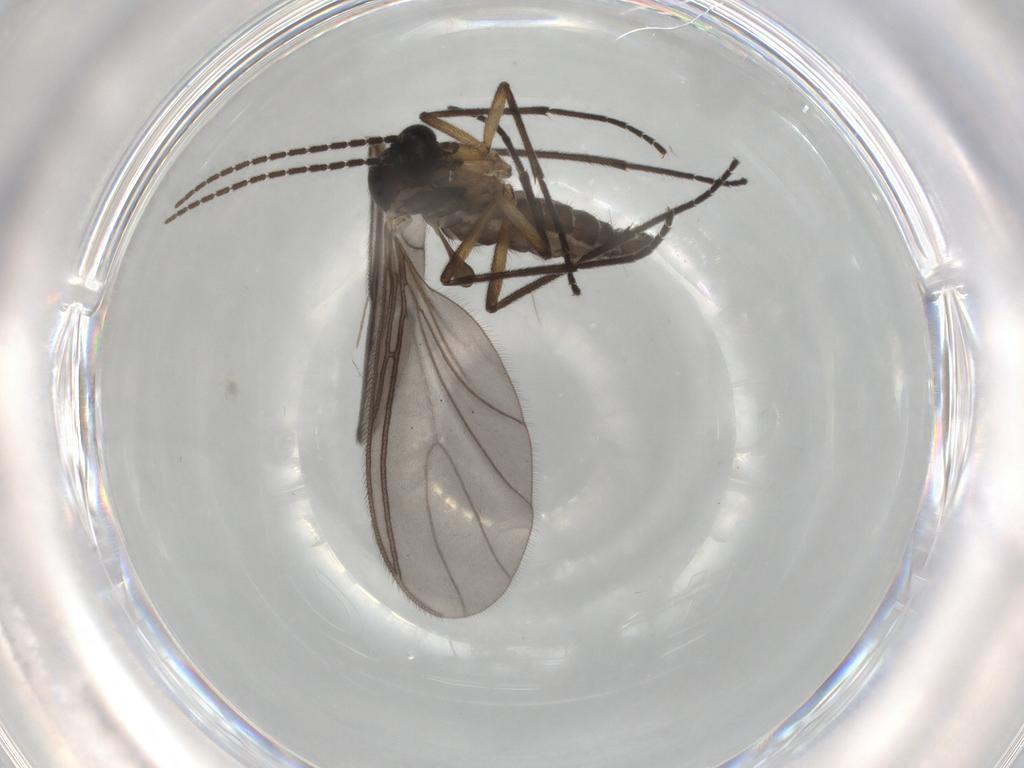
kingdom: Animalia
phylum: Arthropoda
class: Insecta
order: Diptera
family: Sciaridae
